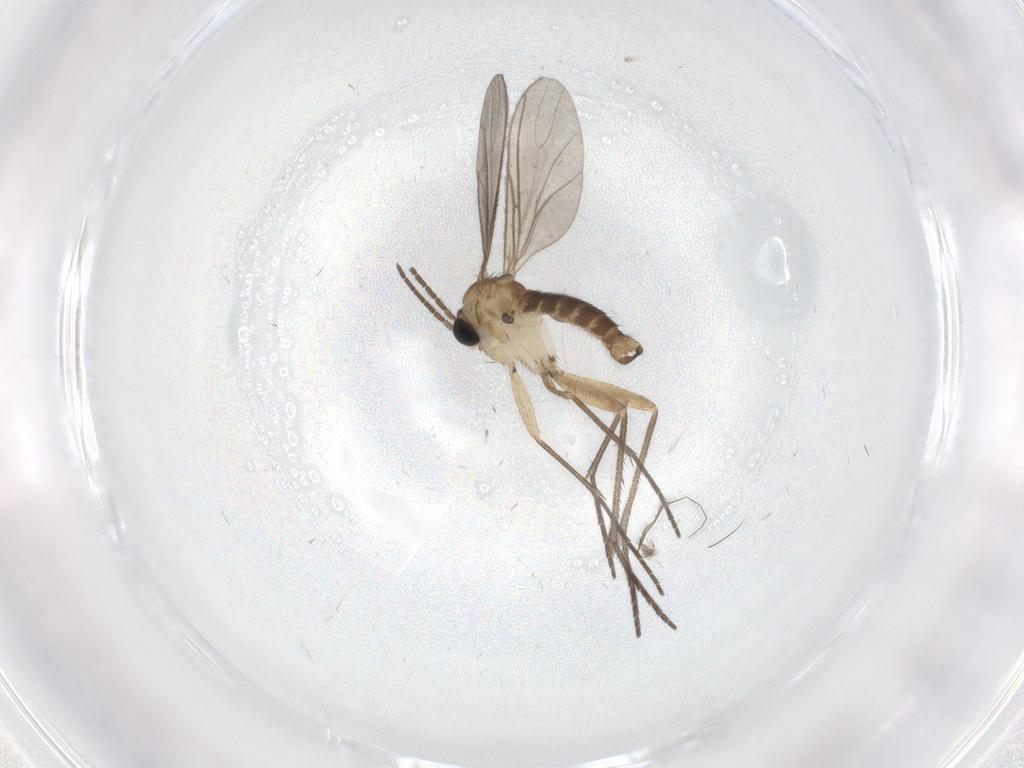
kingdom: Animalia
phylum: Arthropoda
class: Insecta
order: Diptera
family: Sciaridae
